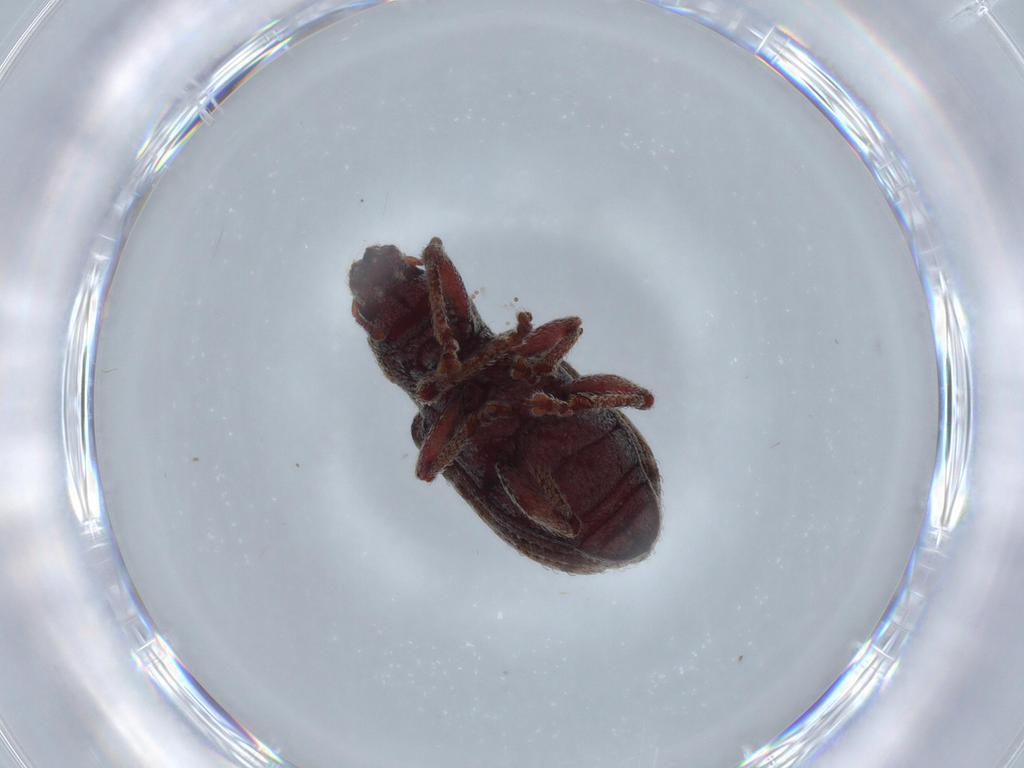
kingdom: Animalia
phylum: Arthropoda
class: Insecta
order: Coleoptera
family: Curculionidae
